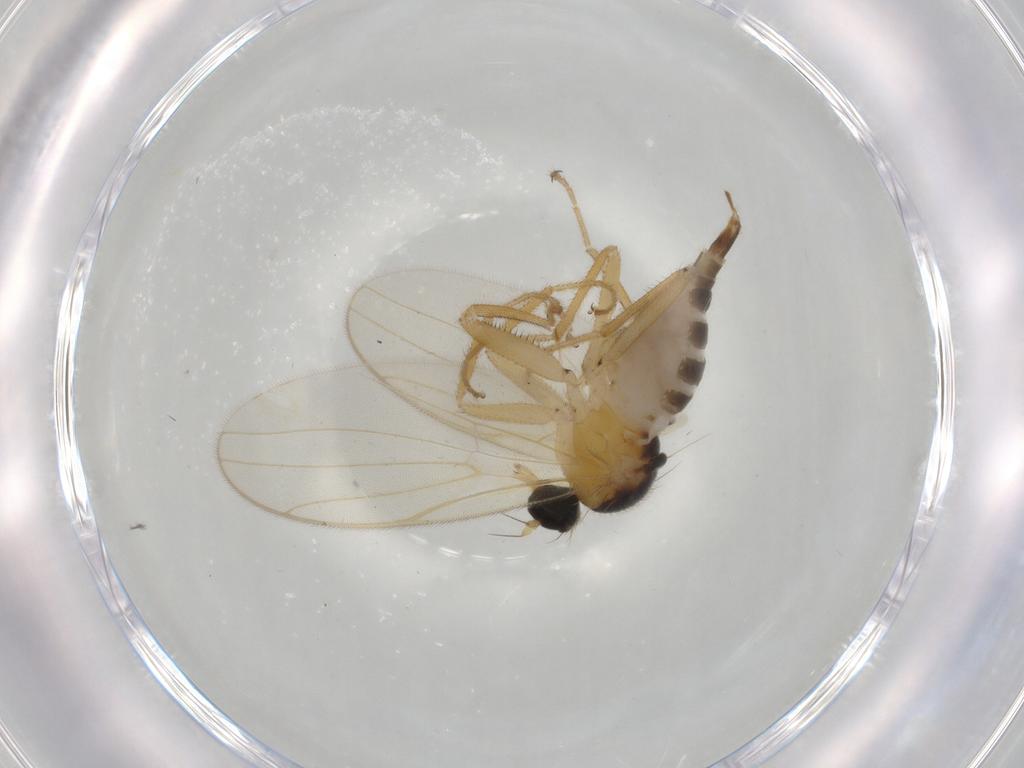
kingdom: Animalia
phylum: Arthropoda
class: Insecta
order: Diptera
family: Hybotidae
